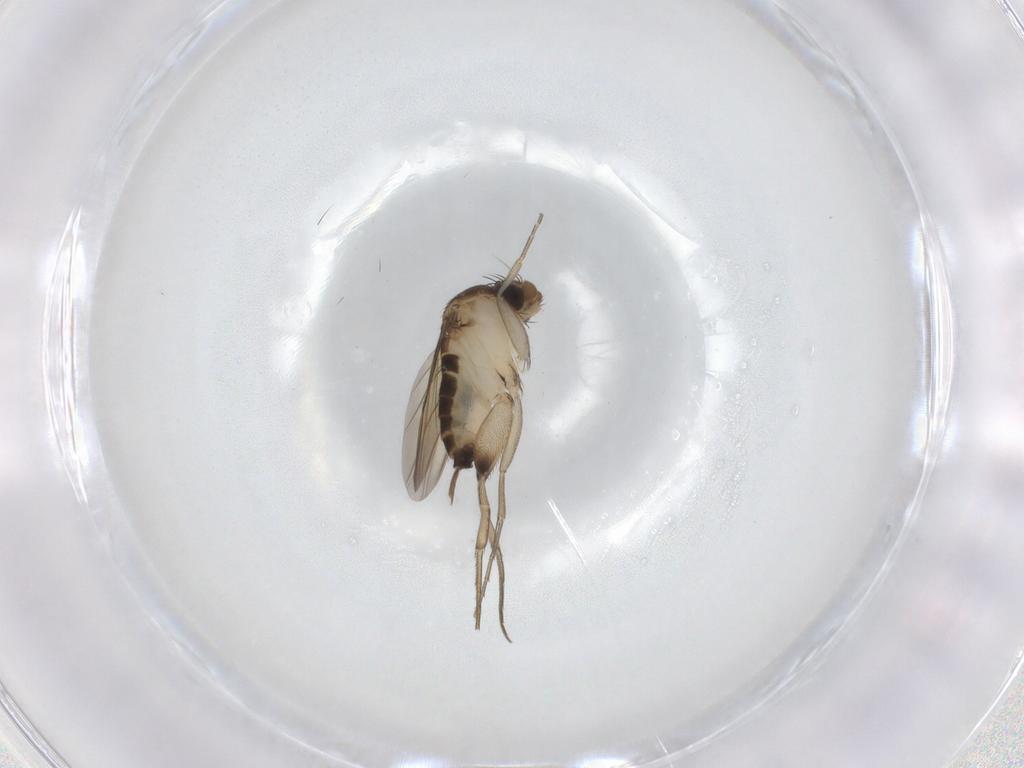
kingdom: Animalia
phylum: Arthropoda
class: Insecta
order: Diptera
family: Phoridae
